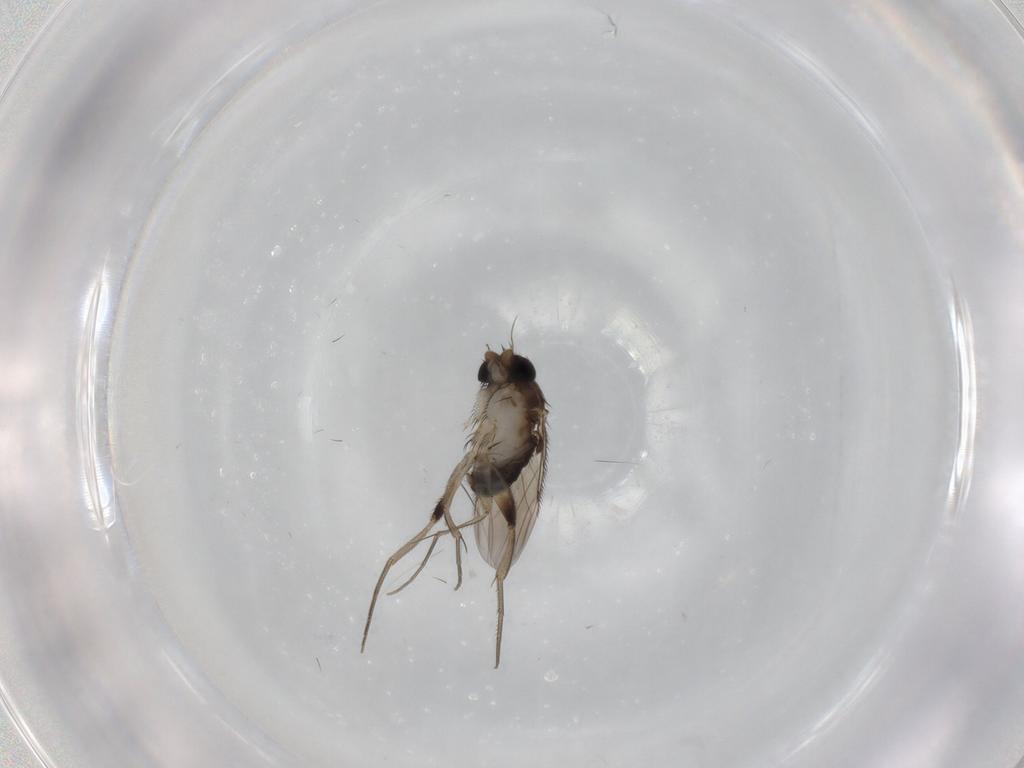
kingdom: Animalia
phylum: Arthropoda
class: Insecta
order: Diptera
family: Phoridae
